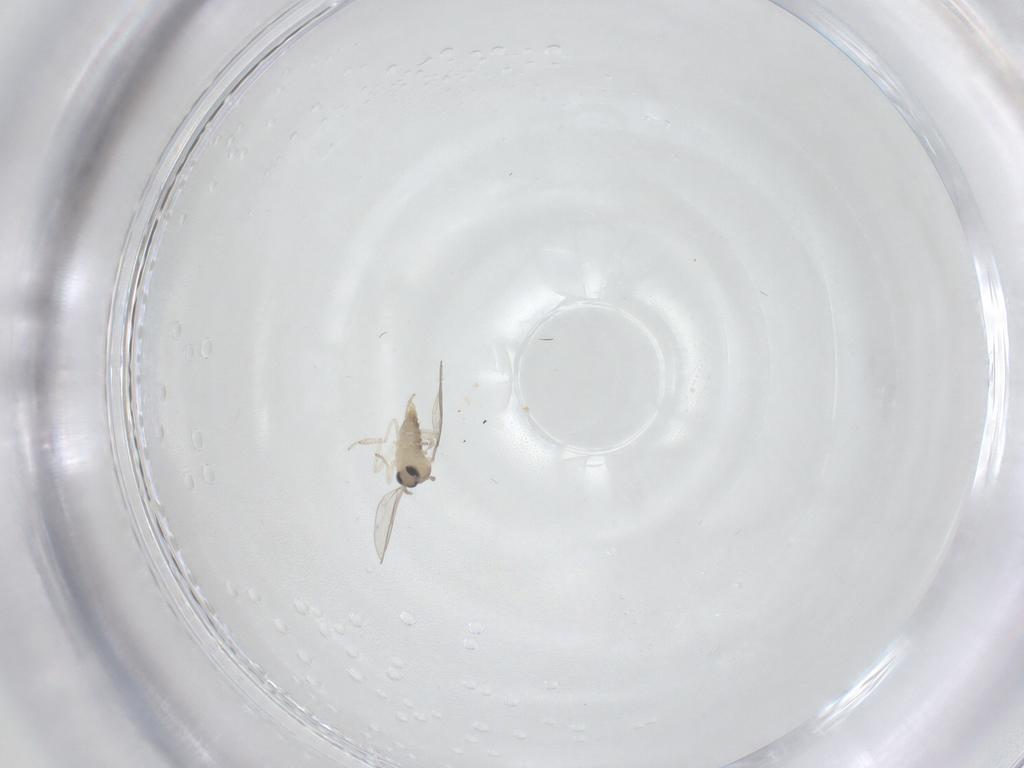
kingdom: Animalia
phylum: Arthropoda
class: Insecta
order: Diptera
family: Cecidomyiidae
